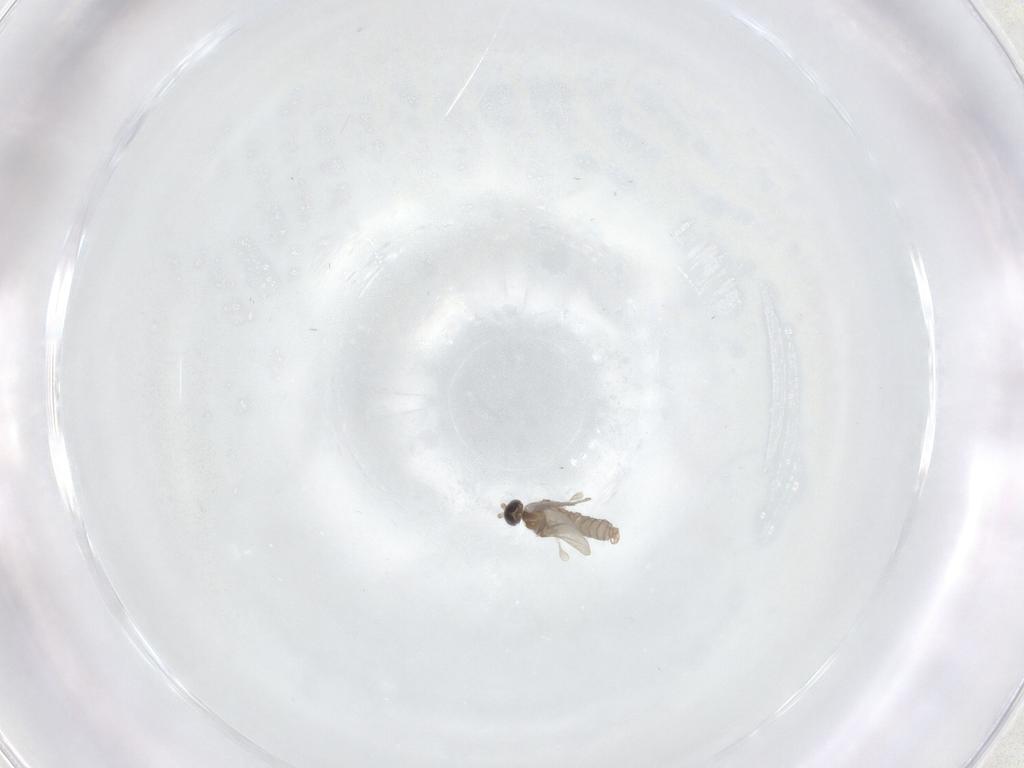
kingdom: Animalia
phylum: Arthropoda
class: Insecta
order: Diptera
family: Cecidomyiidae
